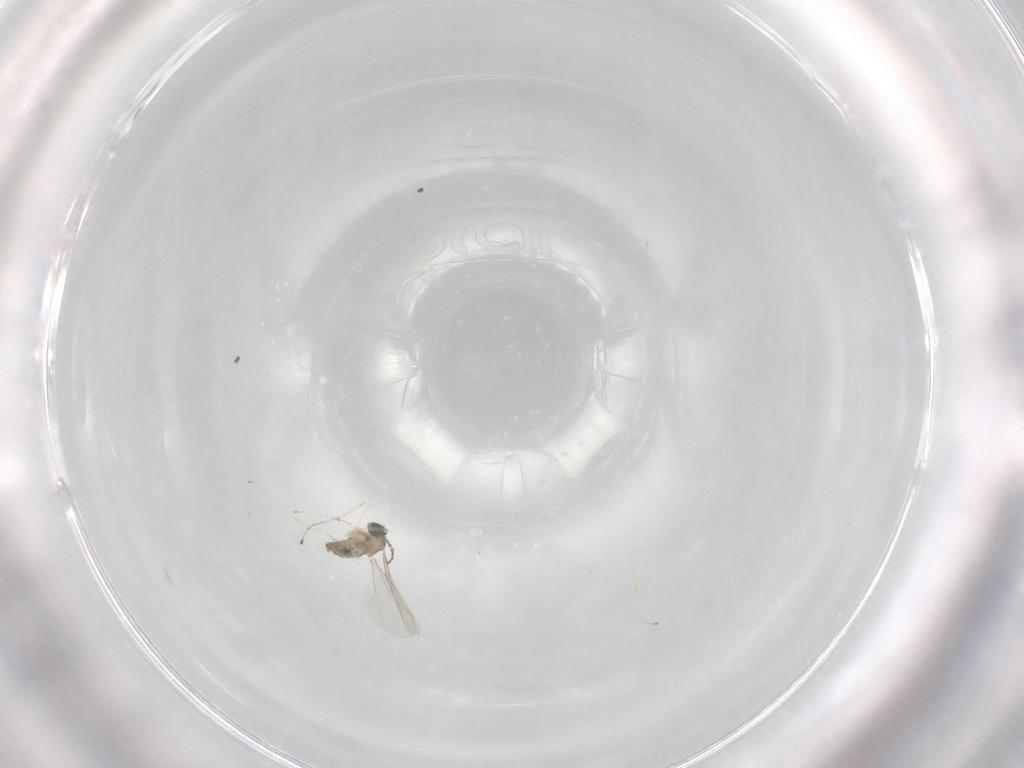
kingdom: Animalia
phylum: Arthropoda
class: Insecta
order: Diptera
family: Cecidomyiidae
